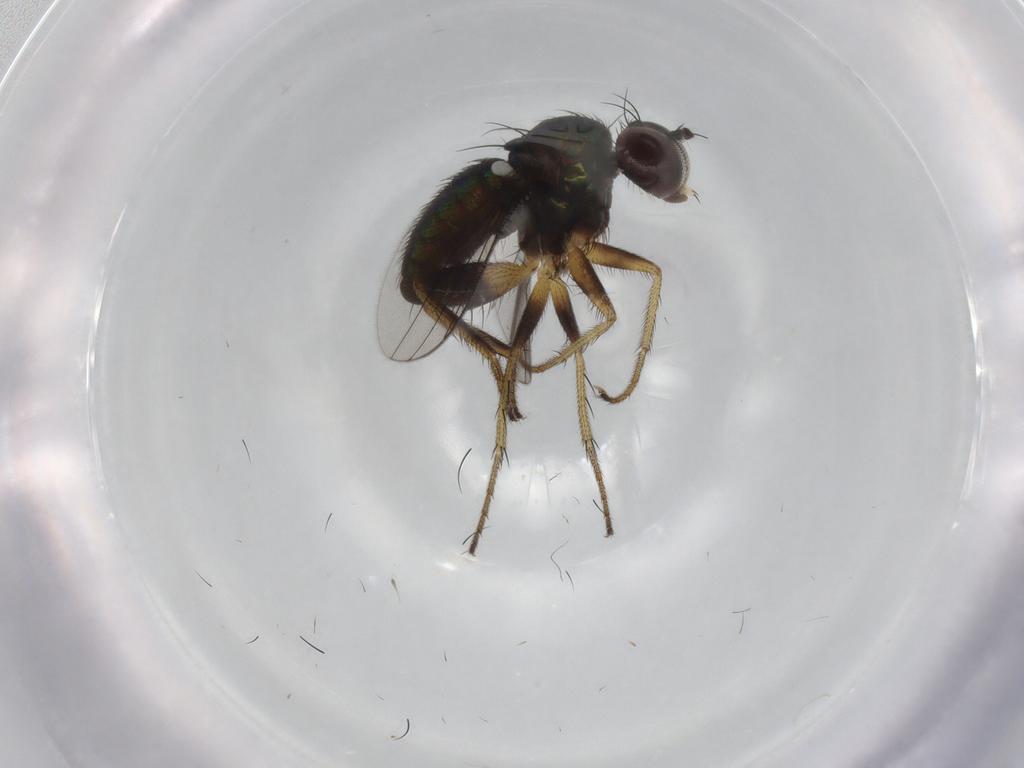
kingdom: Animalia
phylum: Arthropoda
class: Insecta
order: Diptera
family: Dolichopodidae
